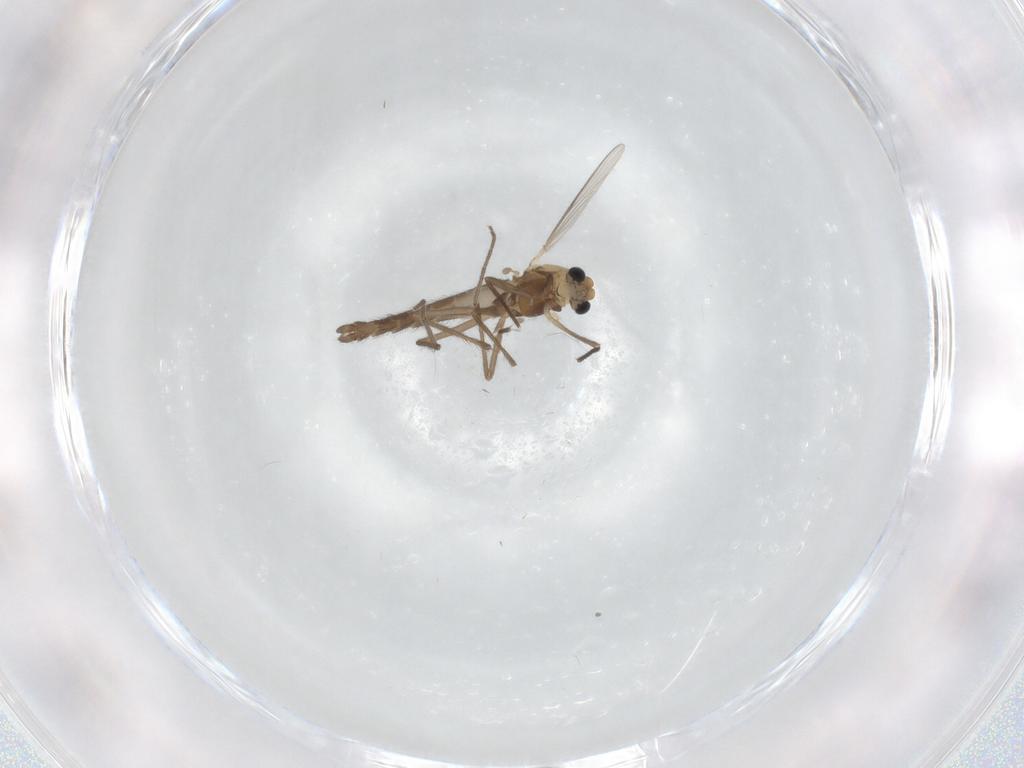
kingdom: Animalia
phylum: Arthropoda
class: Insecta
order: Diptera
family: Chironomidae
